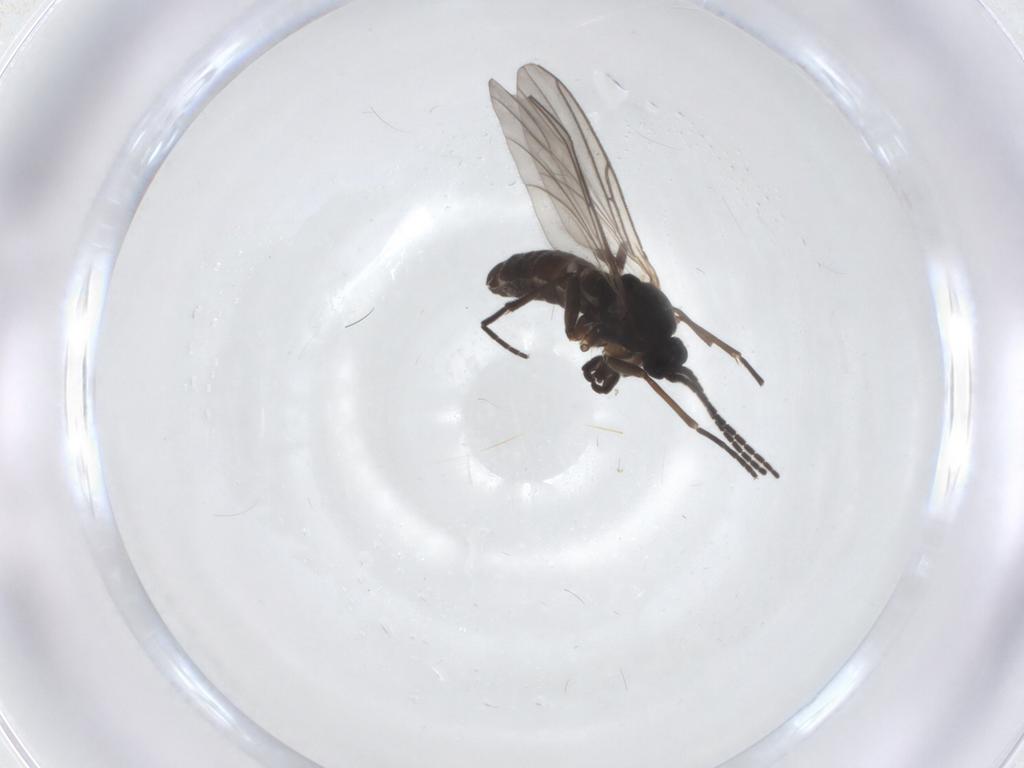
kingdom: Animalia
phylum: Arthropoda
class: Insecta
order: Diptera
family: Sciaridae
